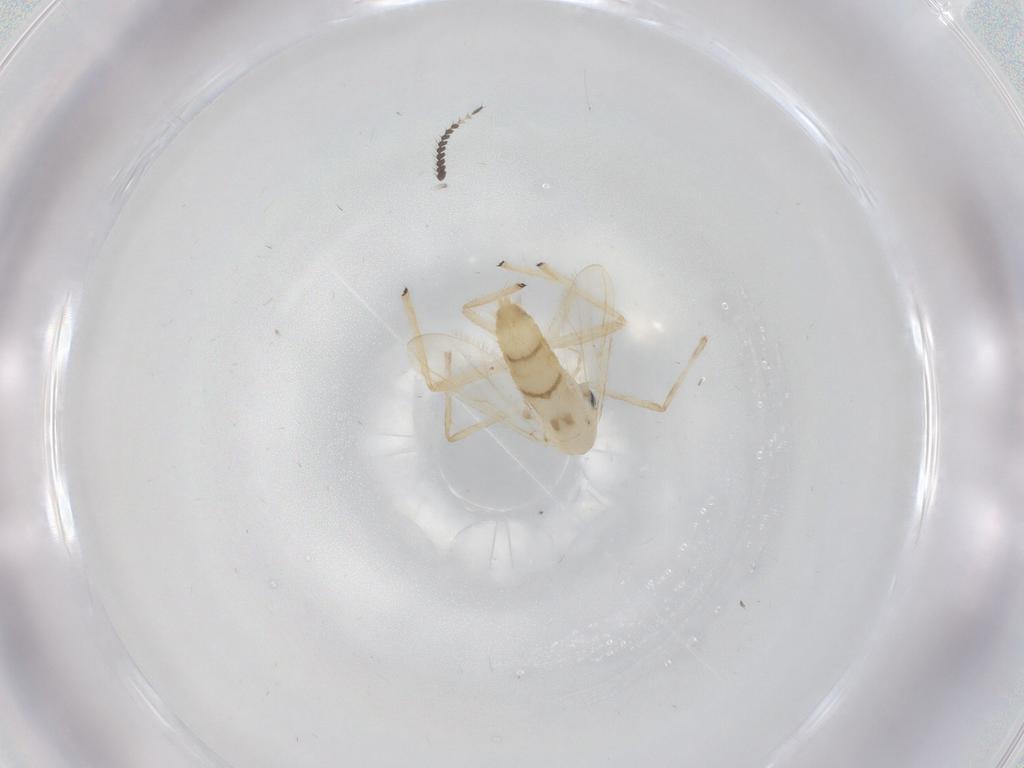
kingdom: Animalia
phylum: Arthropoda
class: Insecta
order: Diptera
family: Chironomidae
